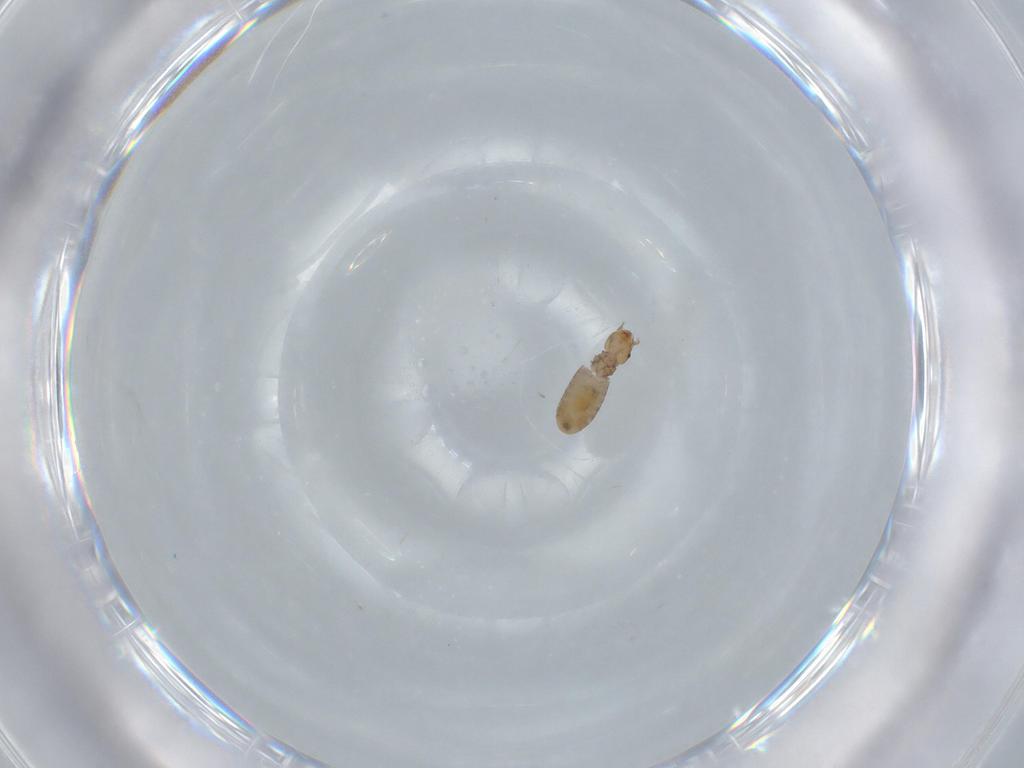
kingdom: Animalia
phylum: Arthropoda
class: Insecta
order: Psocodea
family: Liposcelididae
